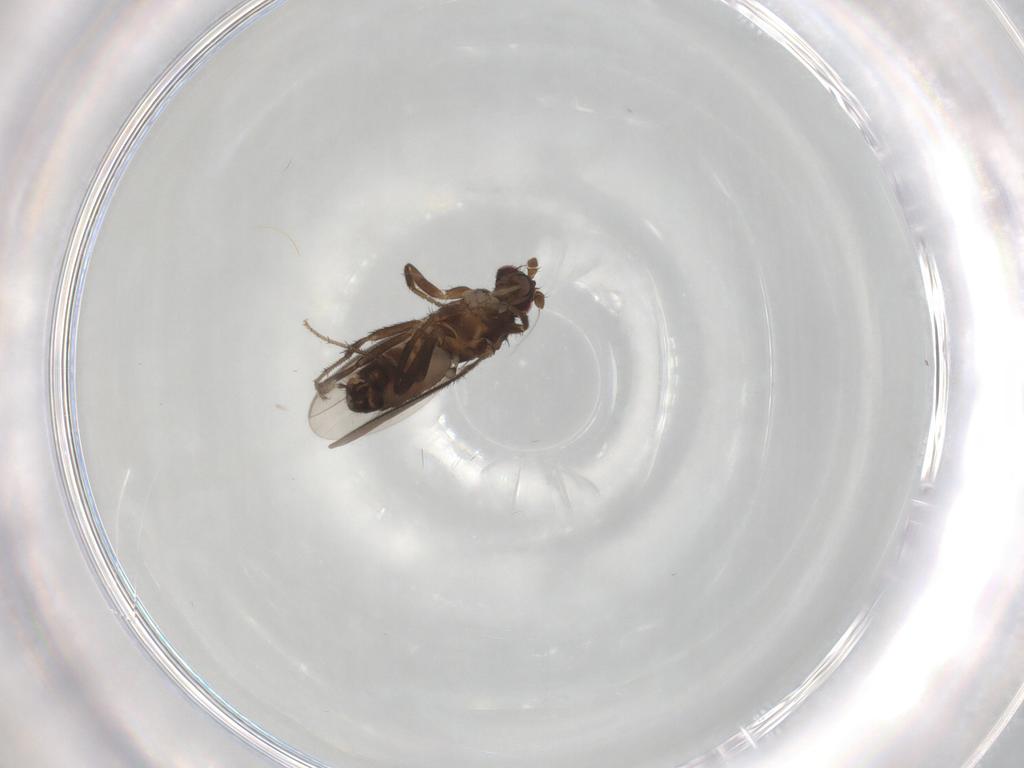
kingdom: Animalia
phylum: Arthropoda
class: Insecta
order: Diptera
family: Sphaeroceridae
